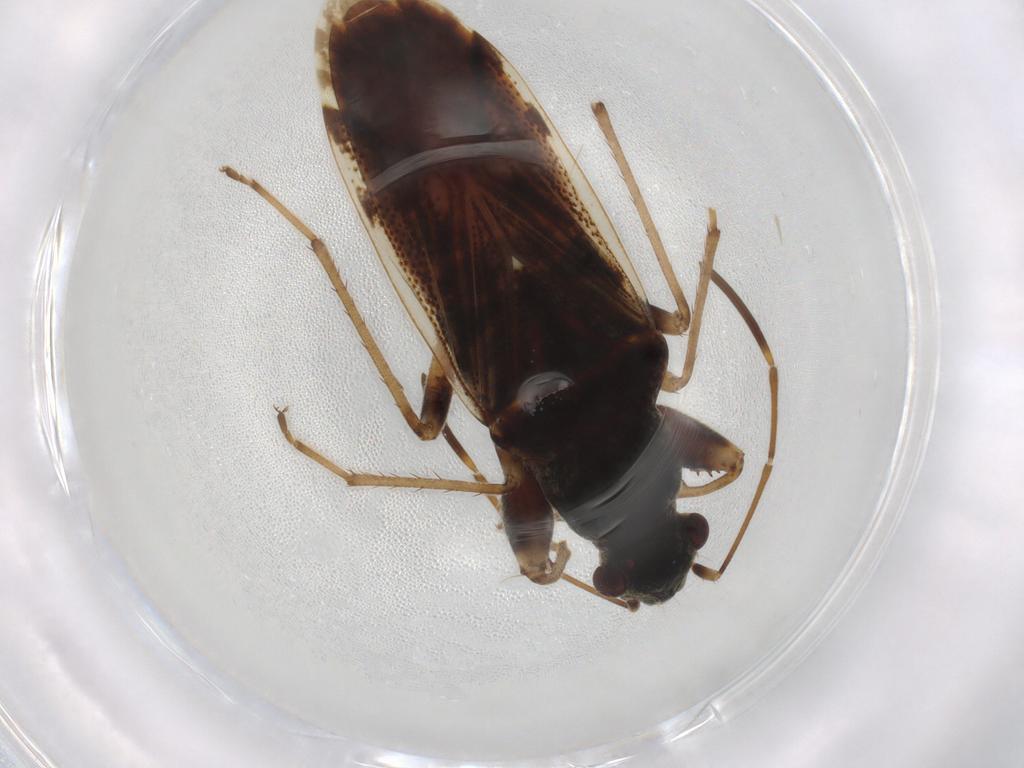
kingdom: Animalia
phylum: Arthropoda
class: Insecta
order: Hemiptera
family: Rhyparochromidae
